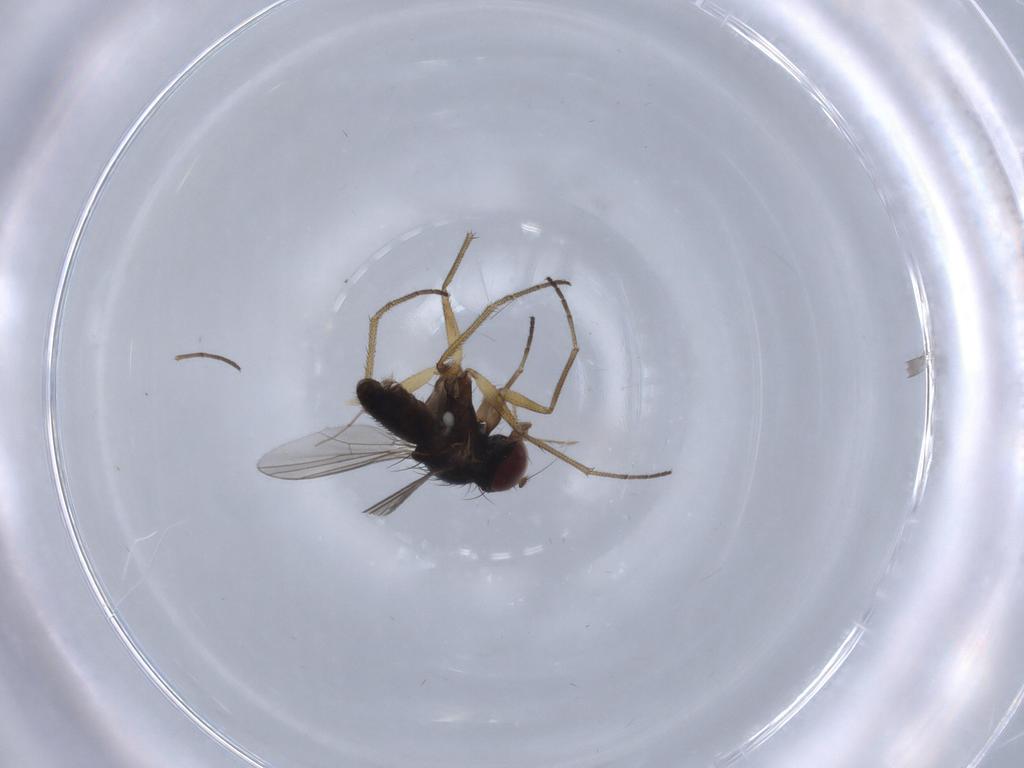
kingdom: Animalia
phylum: Arthropoda
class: Insecta
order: Diptera
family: Dolichopodidae
